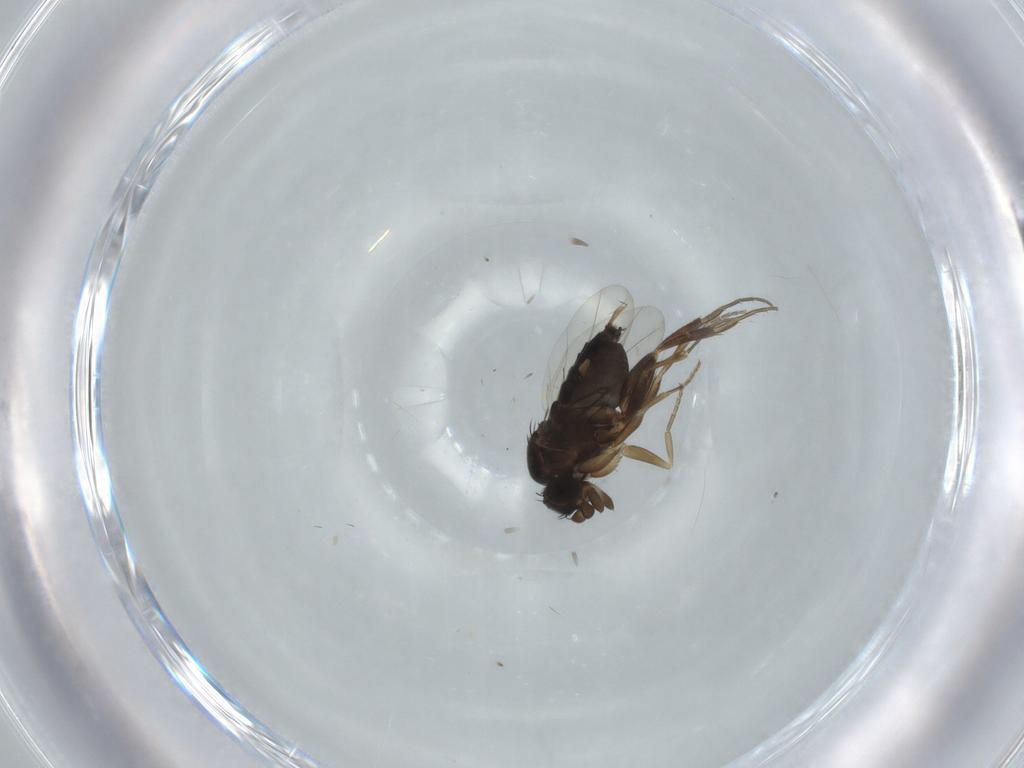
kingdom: Animalia
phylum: Arthropoda
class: Insecta
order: Diptera
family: Phoridae
